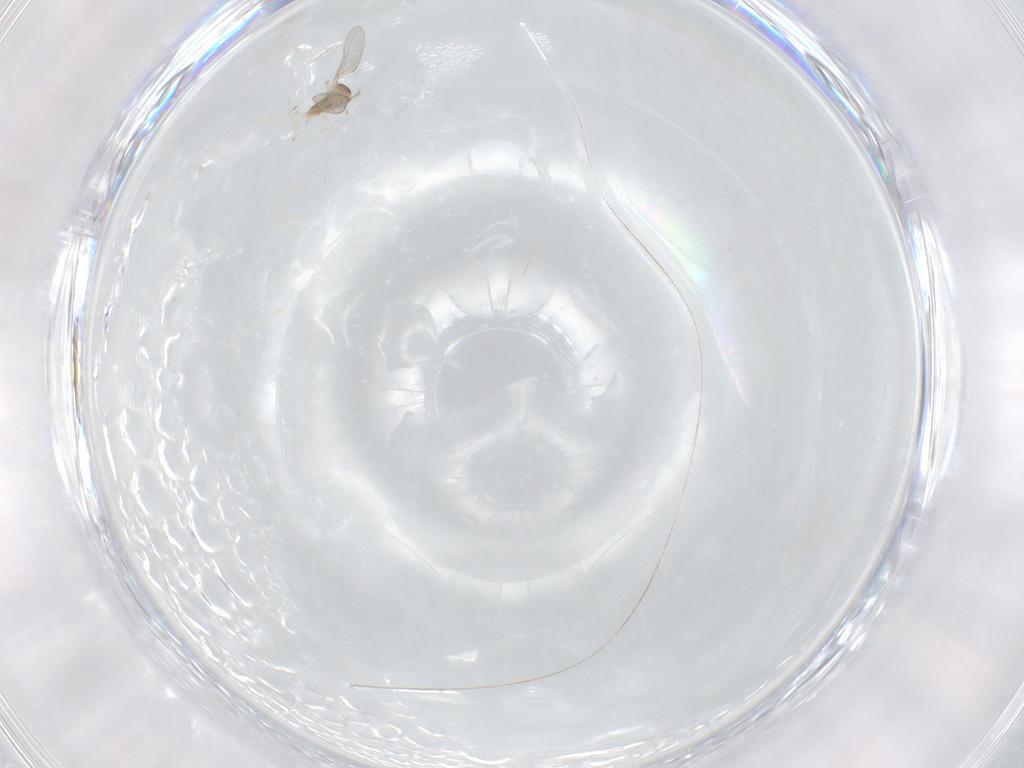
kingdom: Animalia
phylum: Arthropoda
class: Insecta
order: Diptera
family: Cecidomyiidae
